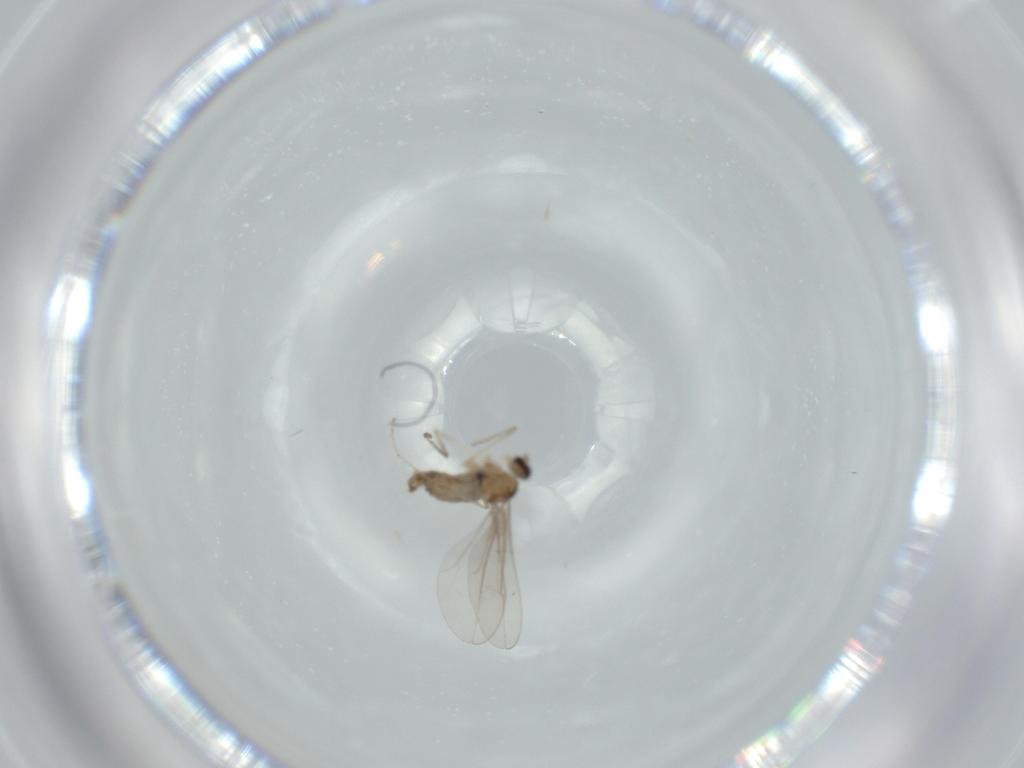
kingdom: Animalia
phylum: Arthropoda
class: Insecta
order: Diptera
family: Cecidomyiidae
